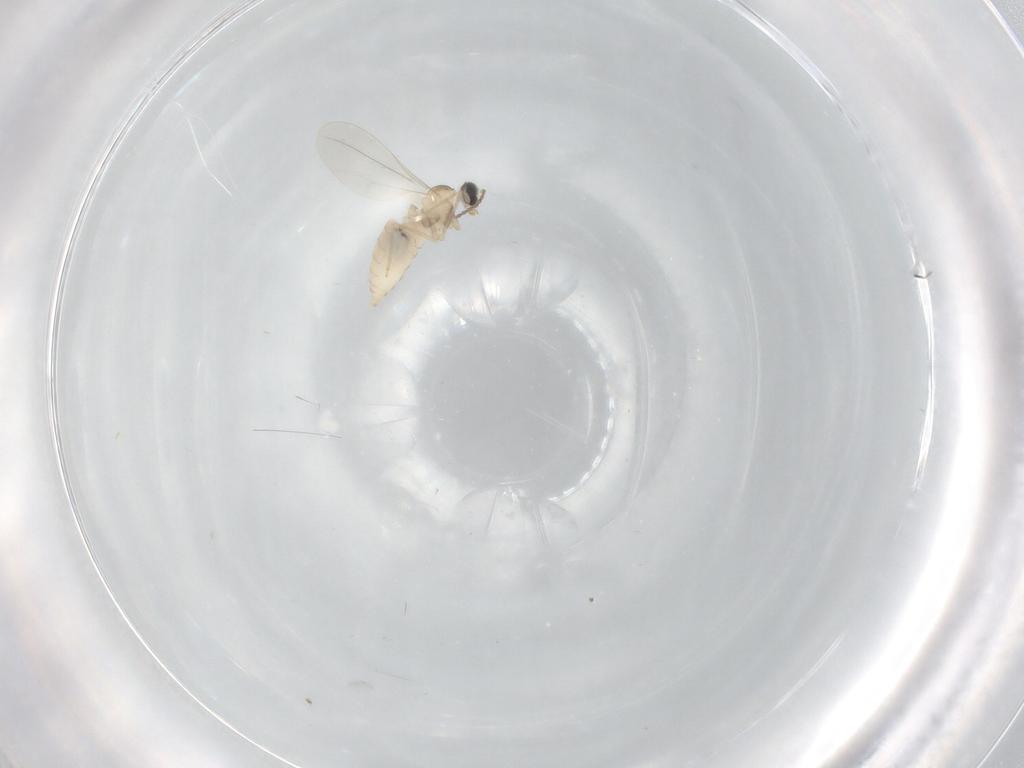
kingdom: Animalia
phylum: Arthropoda
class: Insecta
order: Diptera
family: Cecidomyiidae
